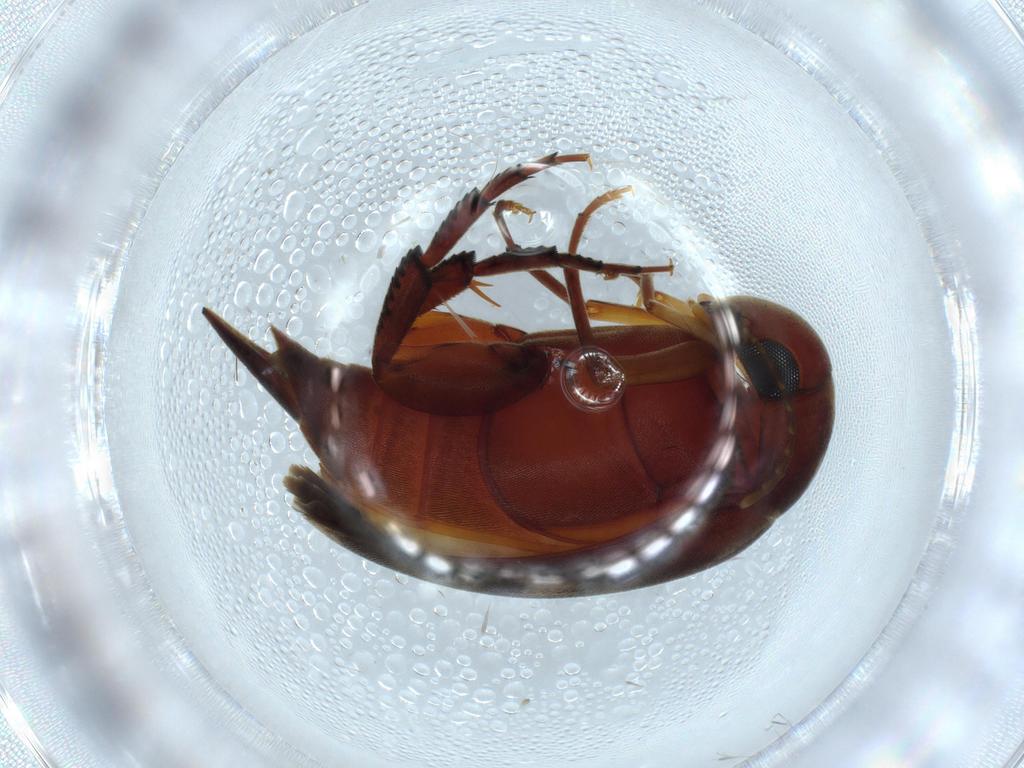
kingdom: Animalia
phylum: Arthropoda
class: Insecta
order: Coleoptera
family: Mordellidae
